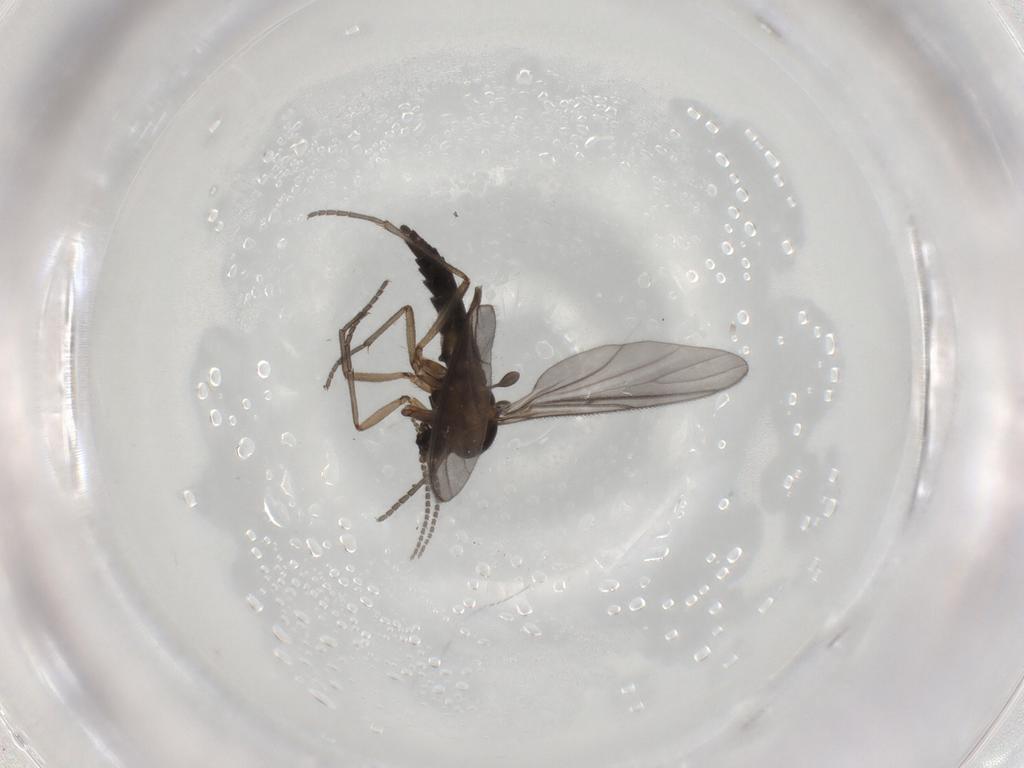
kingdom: Animalia
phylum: Arthropoda
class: Insecta
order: Diptera
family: Sciaridae
